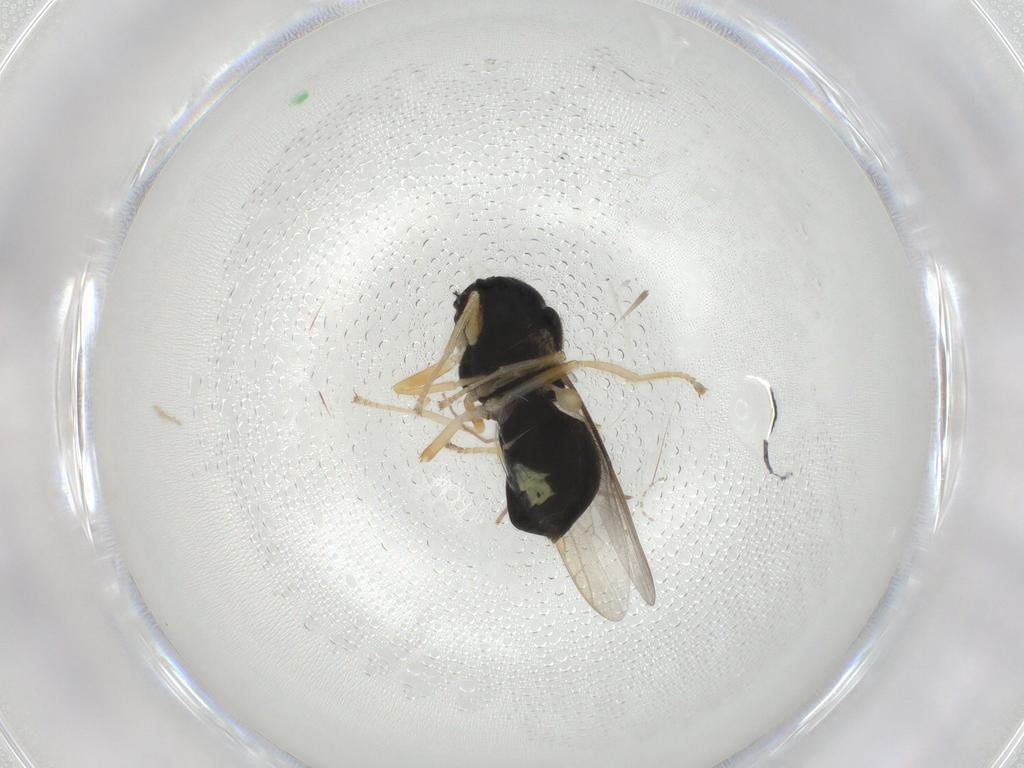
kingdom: Animalia
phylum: Arthropoda
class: Insecta
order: Diptera
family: Stratiomyidae
